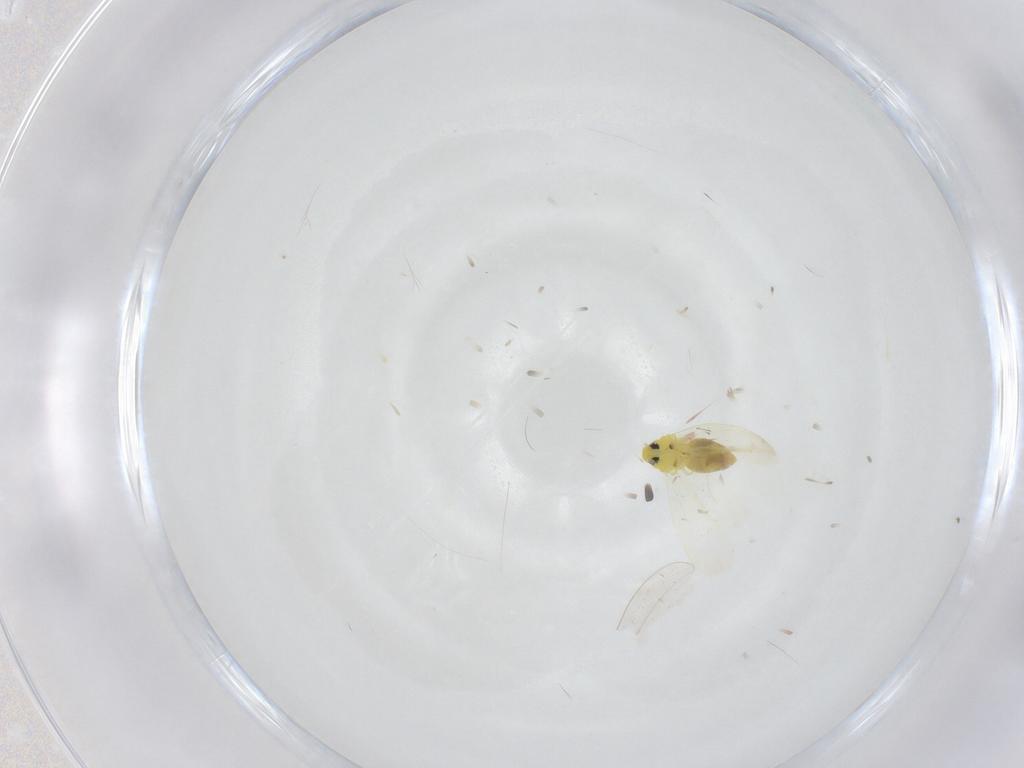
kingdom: Animalia
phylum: Arthropoda
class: Insecta
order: Hemiptera
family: Aleyrodidae
